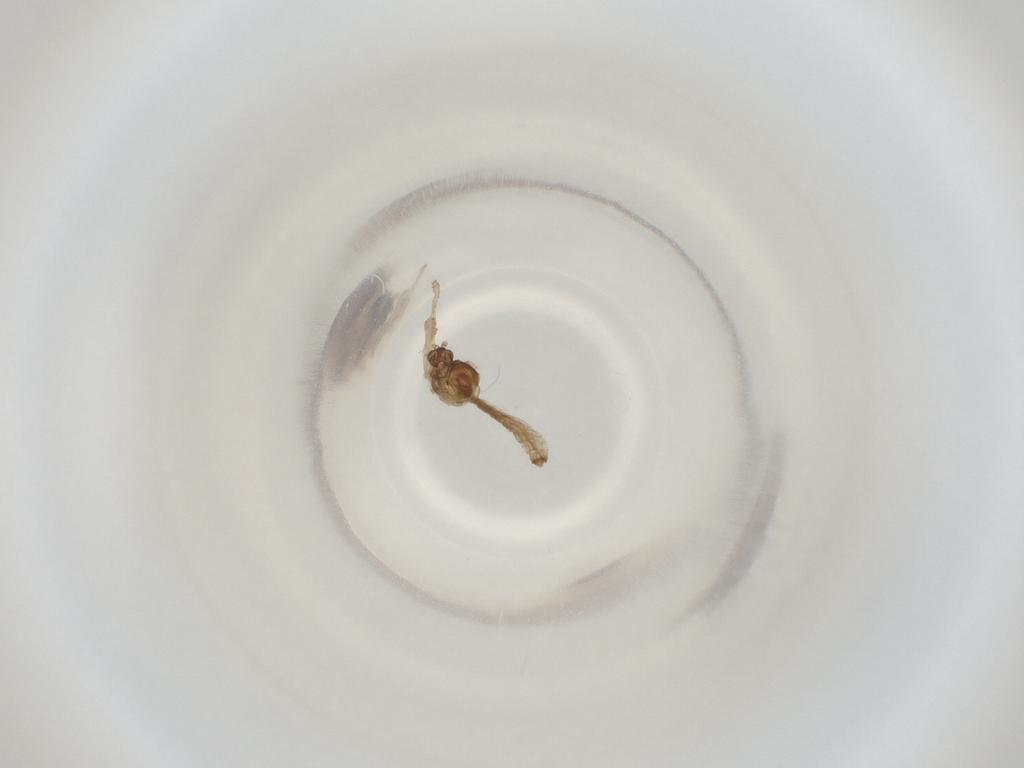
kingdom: Animalia
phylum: Arthropoda
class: Insecta
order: Diptera
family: Cecidomyiidae
